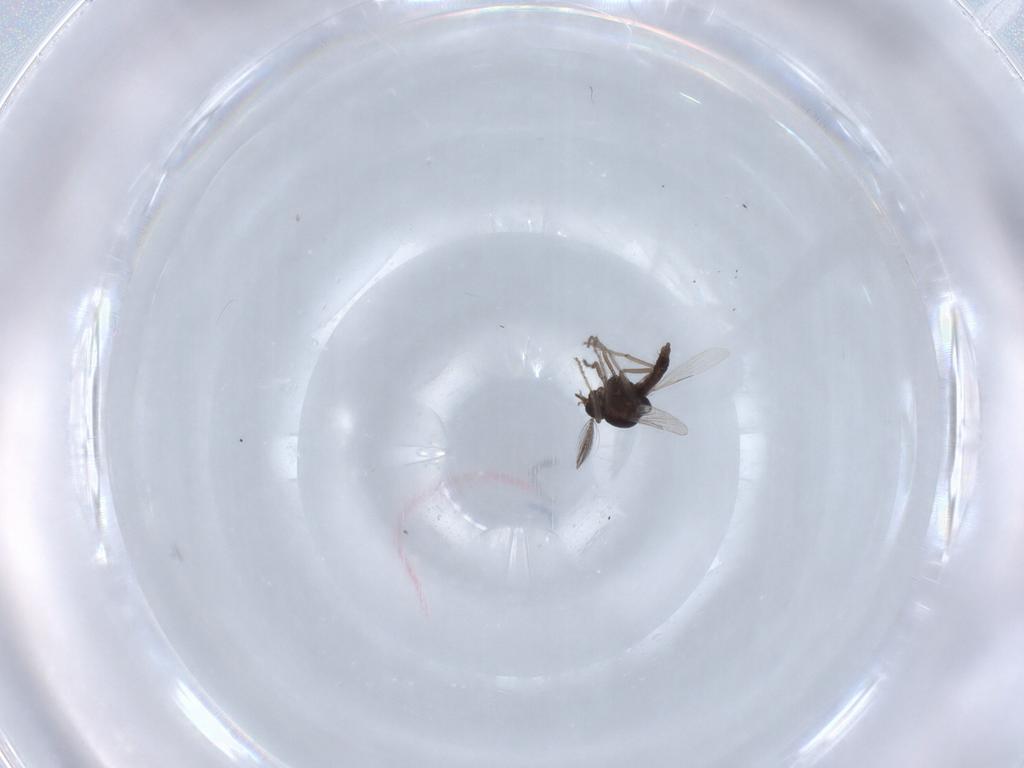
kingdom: Animalia
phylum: Arthropoda
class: Insecta
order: Diptera
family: Ceratopogonidae
